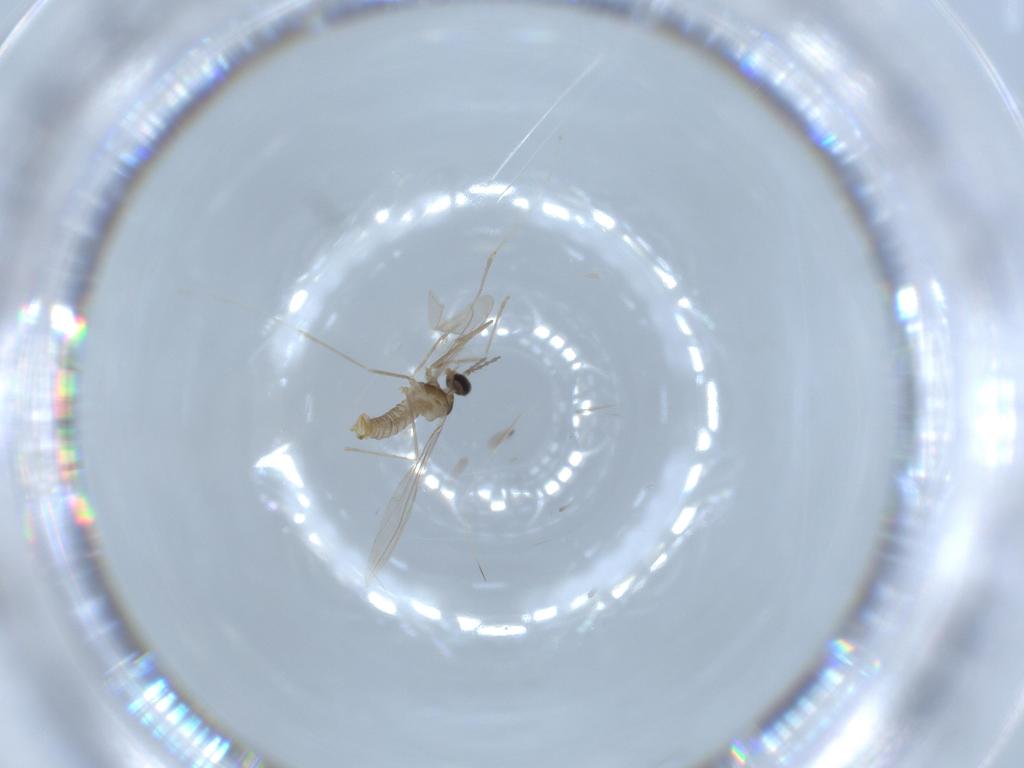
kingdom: Animalia
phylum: Arthropoda
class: Insecta
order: Diptera
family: Cecidomyiidae
